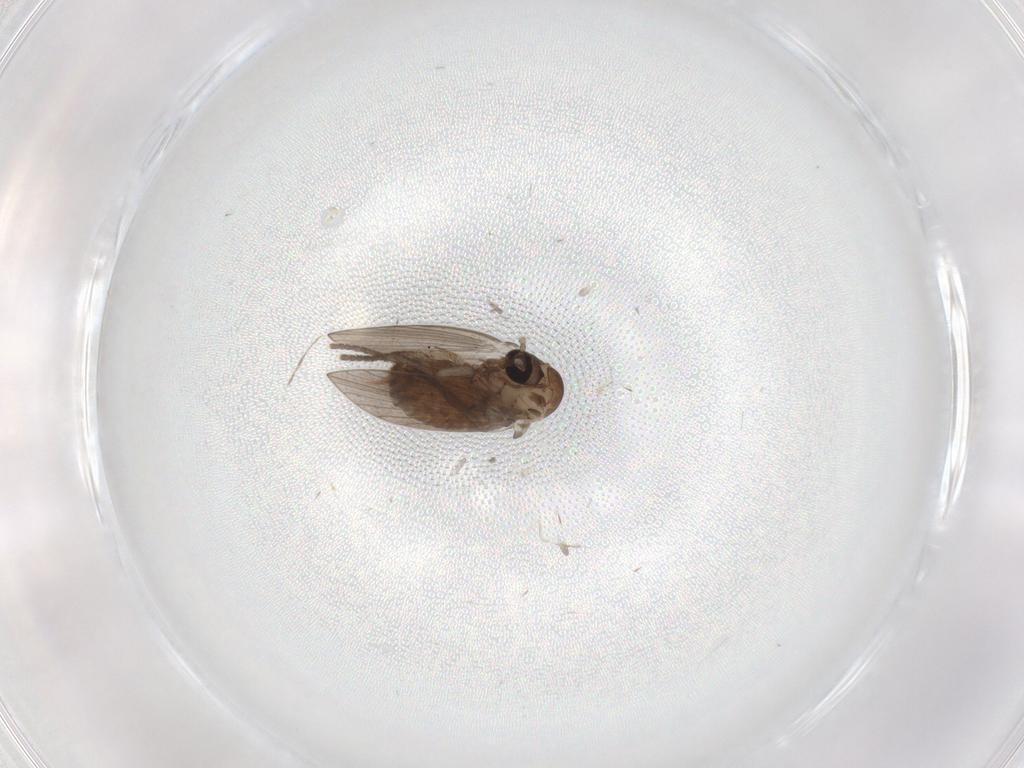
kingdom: Animalia
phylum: Arthropoda
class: Insecta
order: Diptera
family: Psychodidae
